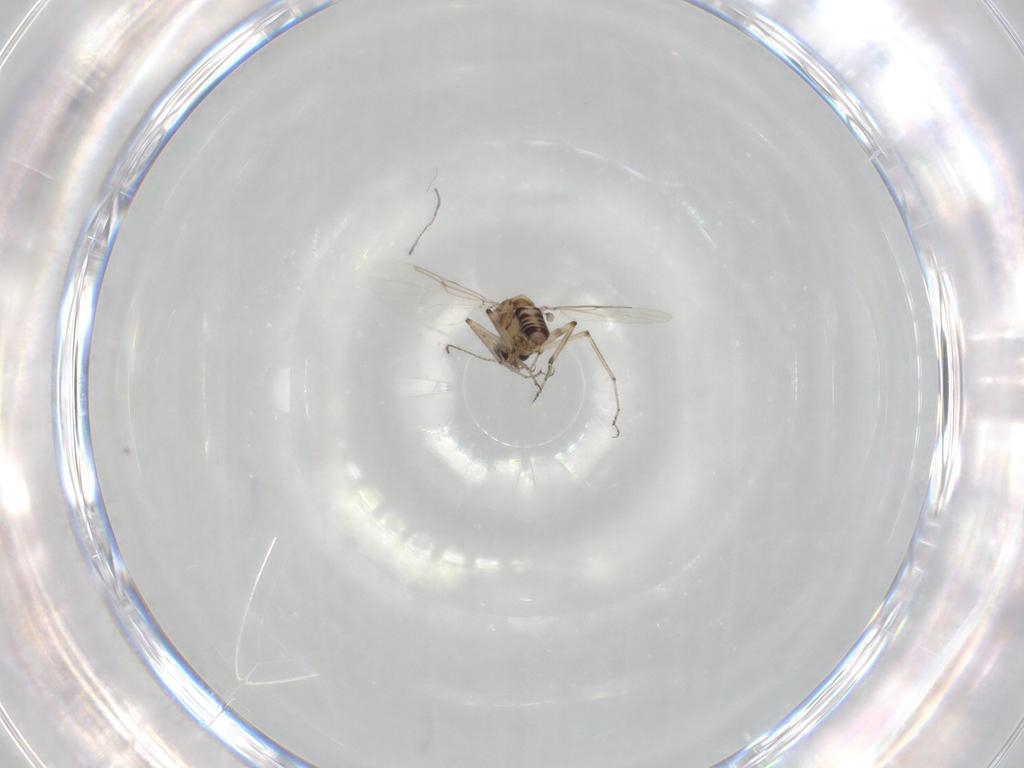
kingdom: Animalia
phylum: Arthropoda
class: Insecta
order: Diptera
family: Ceratopogonidae
